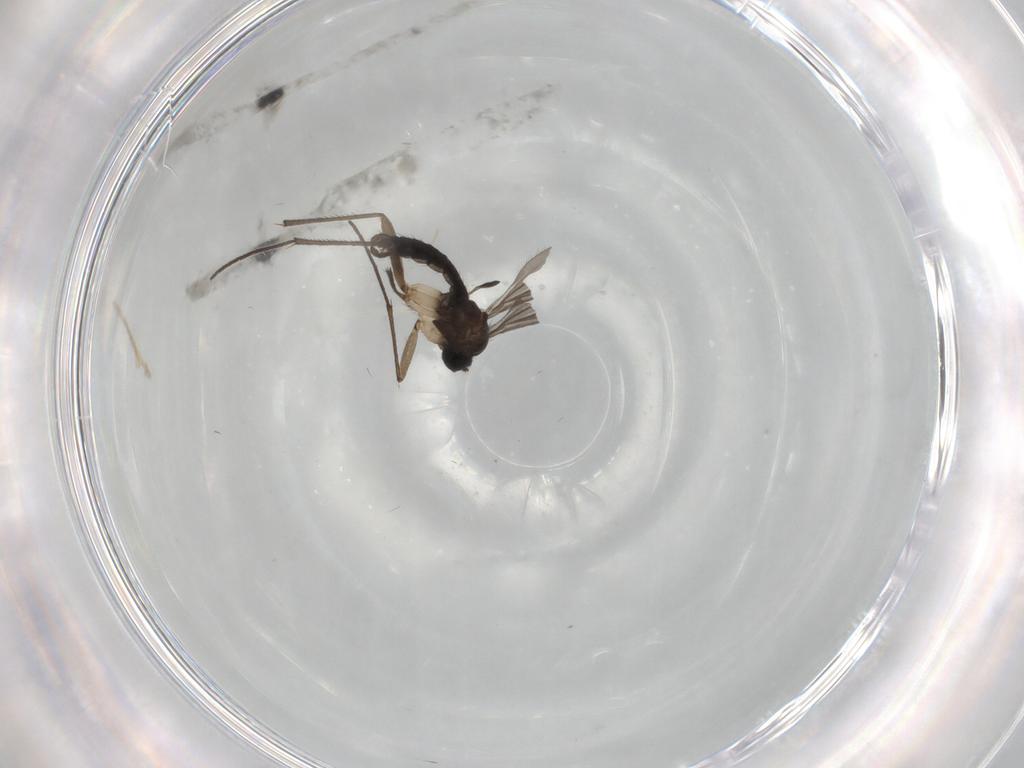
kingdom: Animalia
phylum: Arthropoda
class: Insecta
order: Diptera
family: Sciaridae
